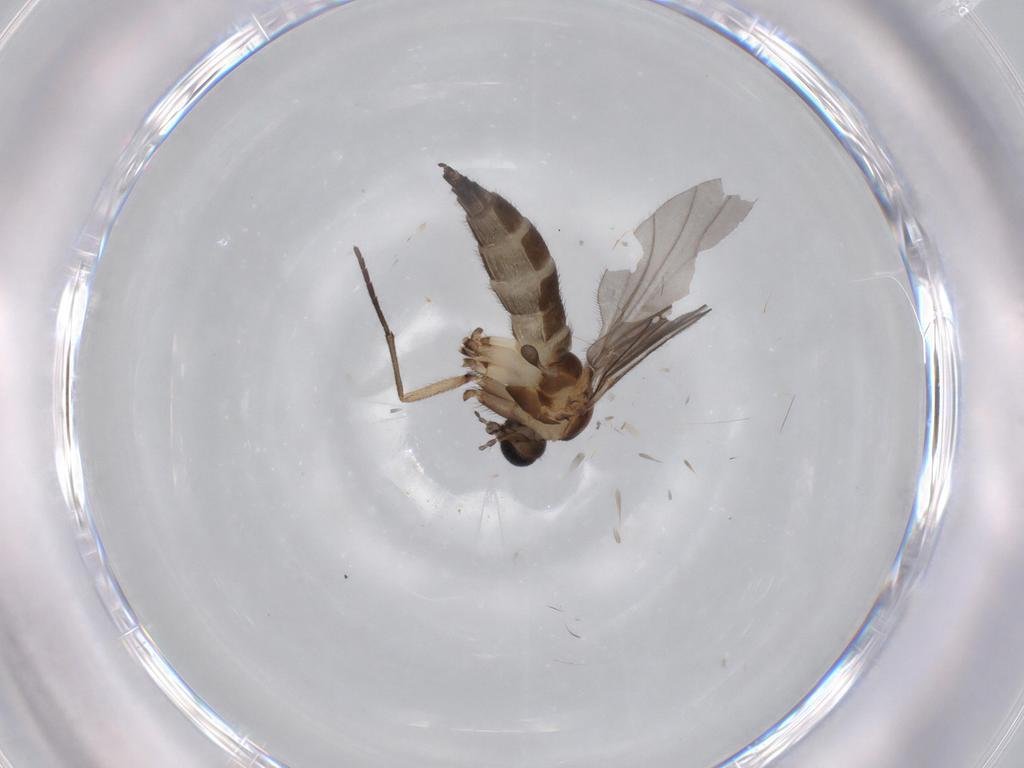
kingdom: Animalia
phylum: Arthropoda
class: Insecta
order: Diptera
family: Sciaridae
